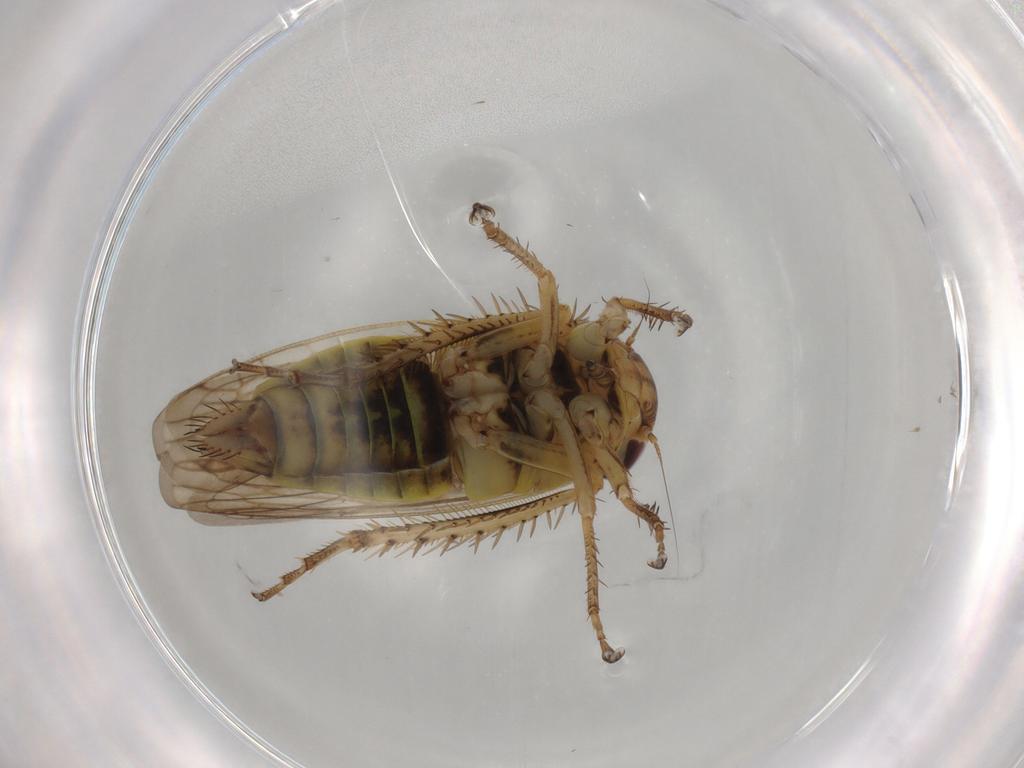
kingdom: Animalia
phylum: Arthropoda
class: Insecta
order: Hemiptera
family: Cicadellidae
